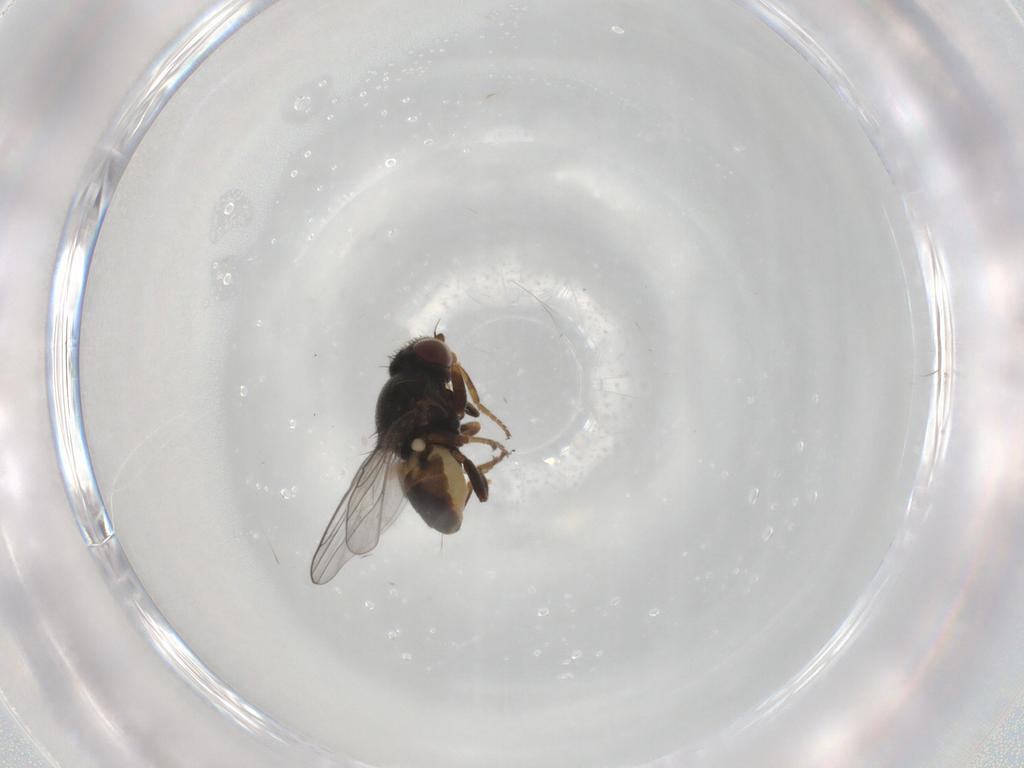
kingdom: Animalia
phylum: Arthropoda
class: Insecta
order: Diptera
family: Chloropidae
